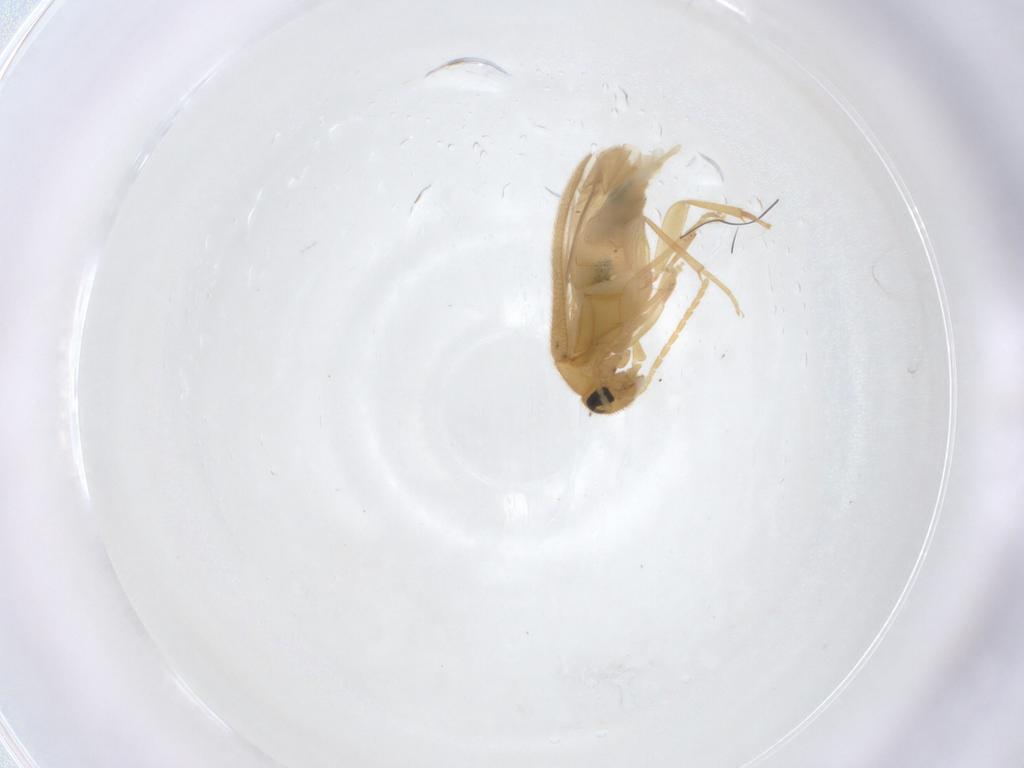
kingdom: Animalia
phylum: Arthropoda
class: Insecta
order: Coleoptera
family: Scraptiidae
